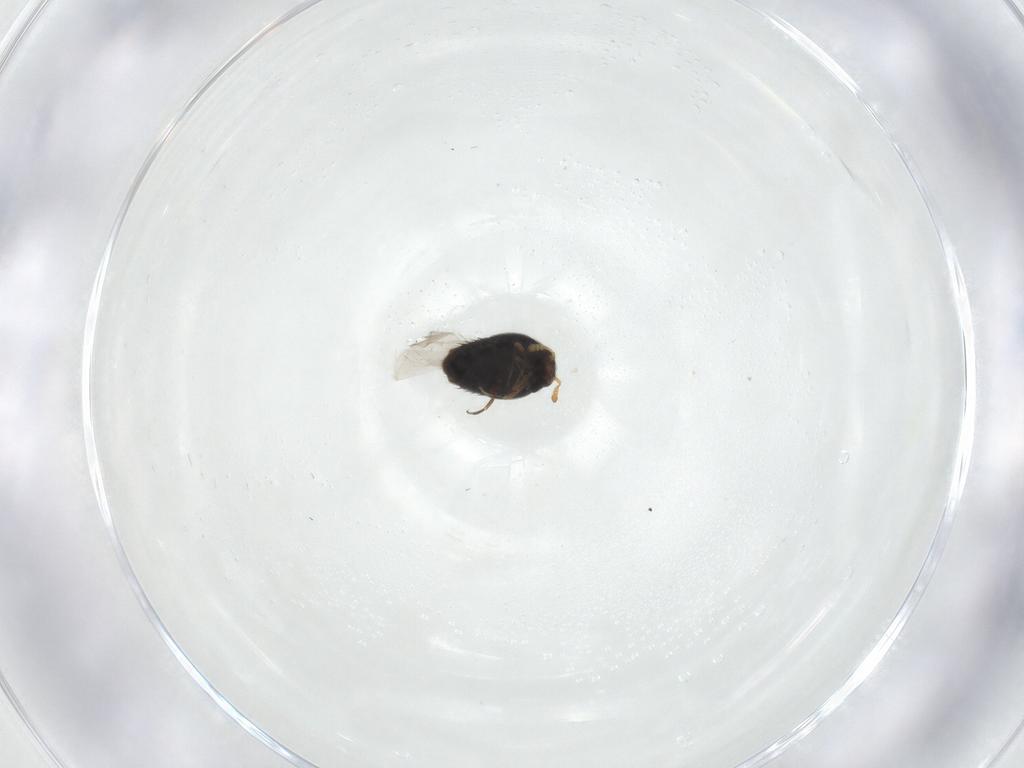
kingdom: Animalia
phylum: Arthropoda
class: Insecta
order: Coleoptera
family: Staphylinidae
